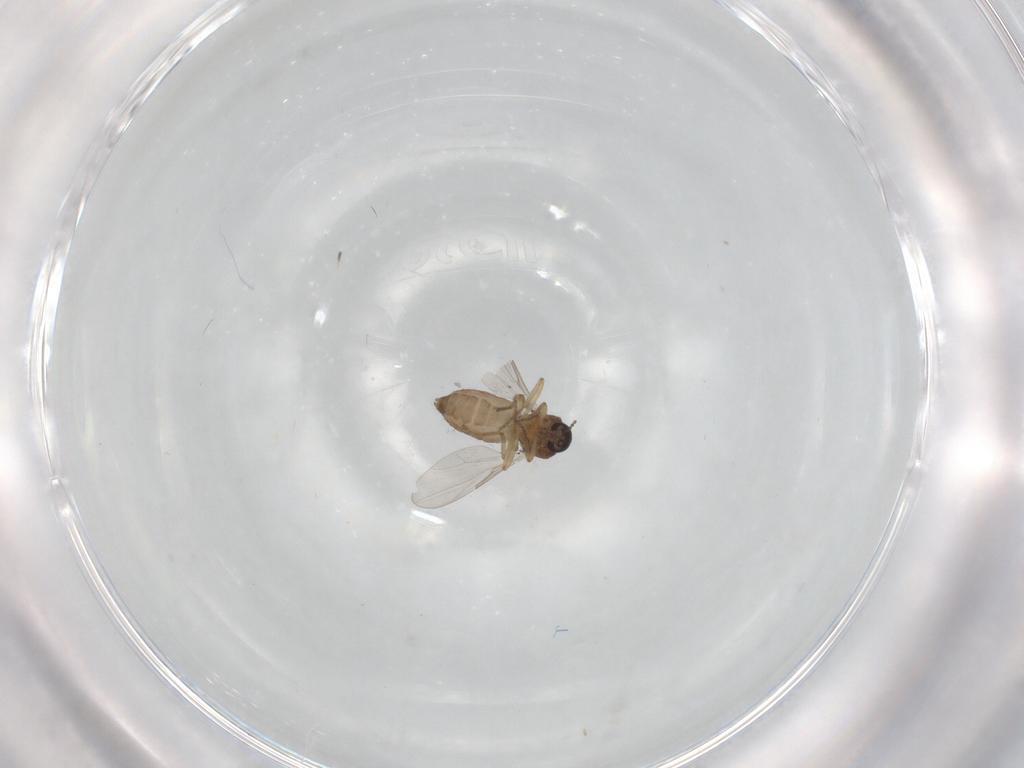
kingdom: Animalia
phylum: Arthropoda
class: Insecta
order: Diptera
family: Ceratopogonidae
